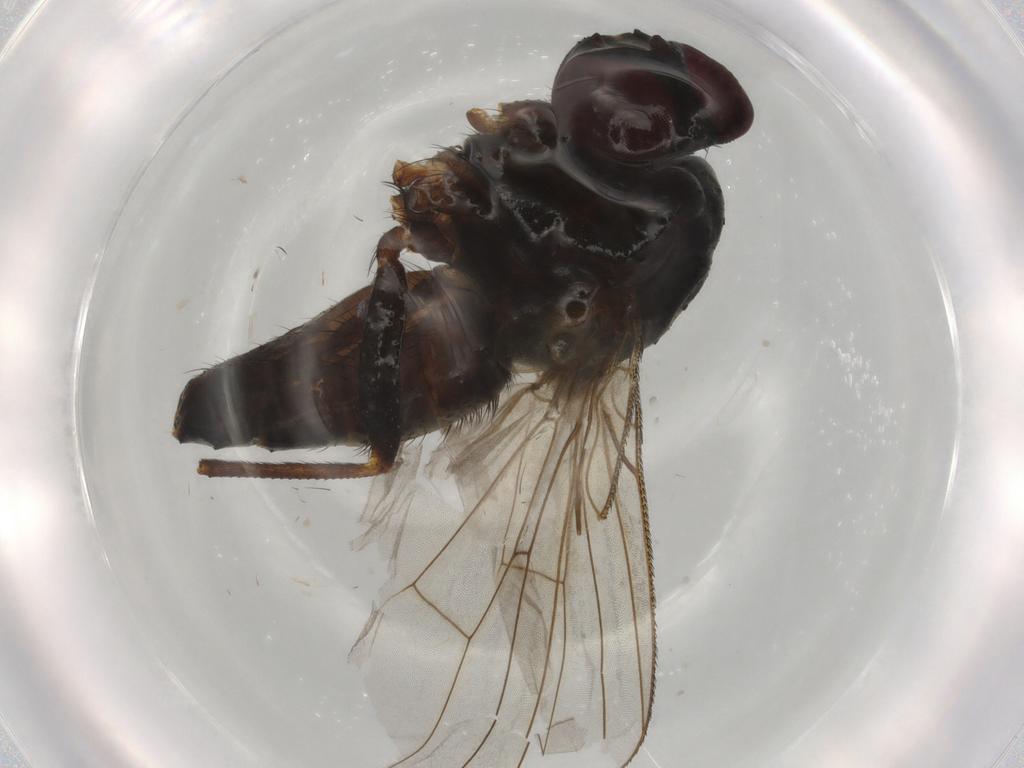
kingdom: Animalia
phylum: Arthropoda
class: Insecta
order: Diptera
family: Muscidae
